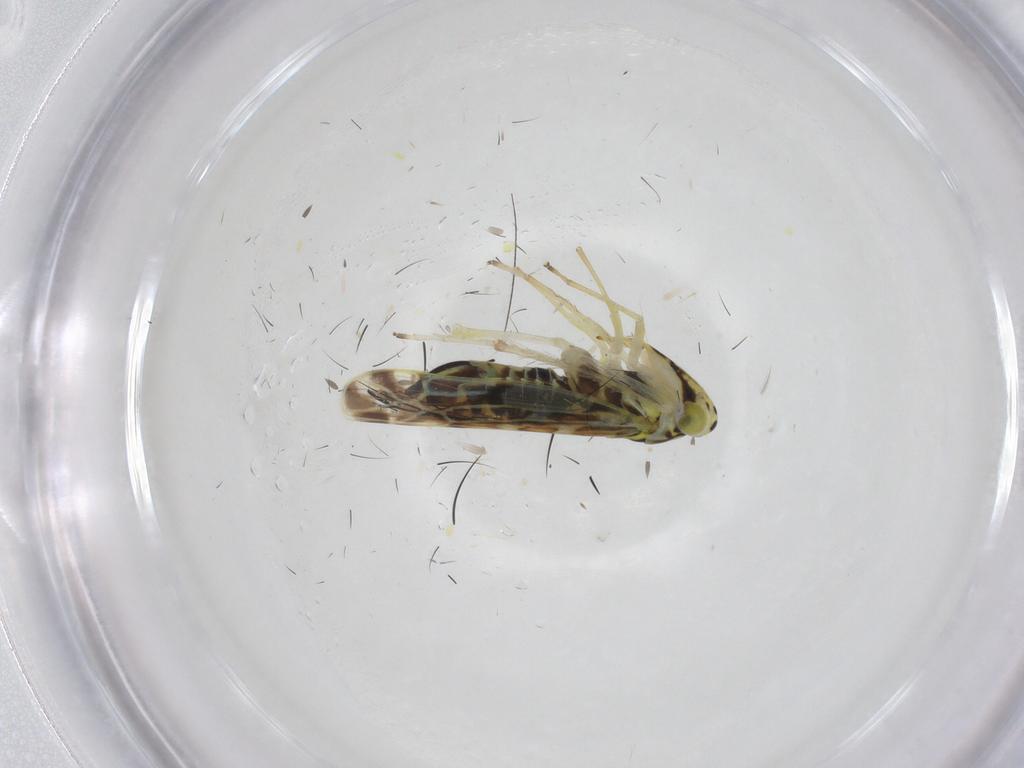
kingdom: Animalia
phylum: Arthropoda
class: Insecta
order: Hemiptera
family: Cicadellidae
